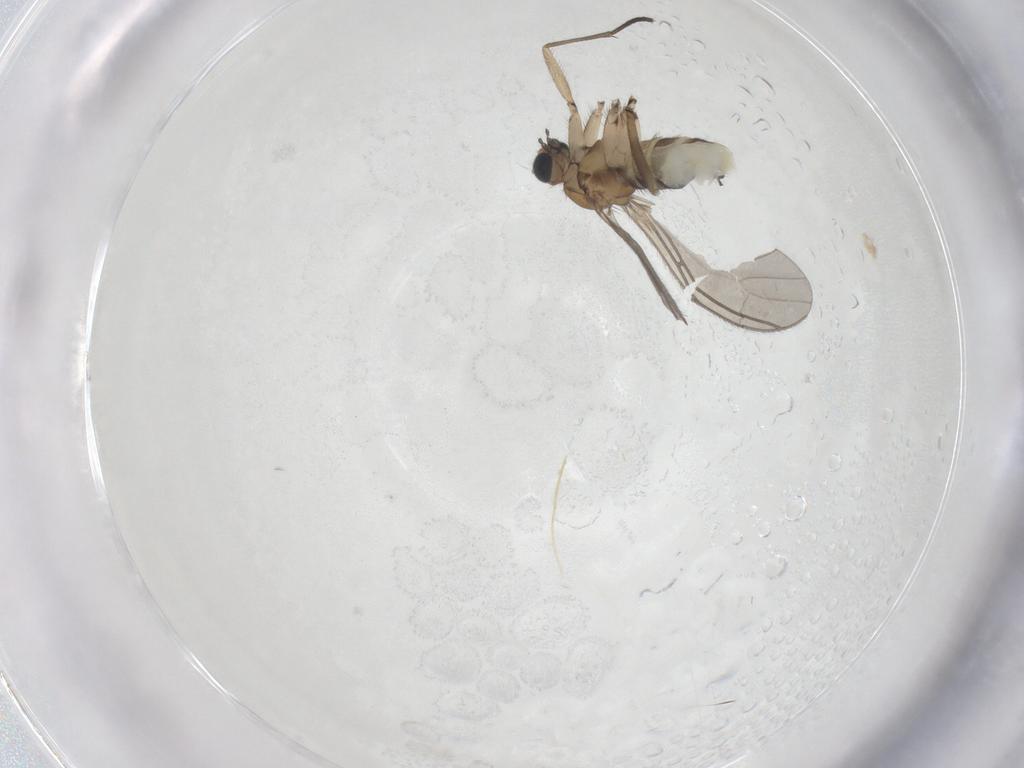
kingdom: Animalia
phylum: Arthropoda
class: Insecta
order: Diptera
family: Sciaridae
